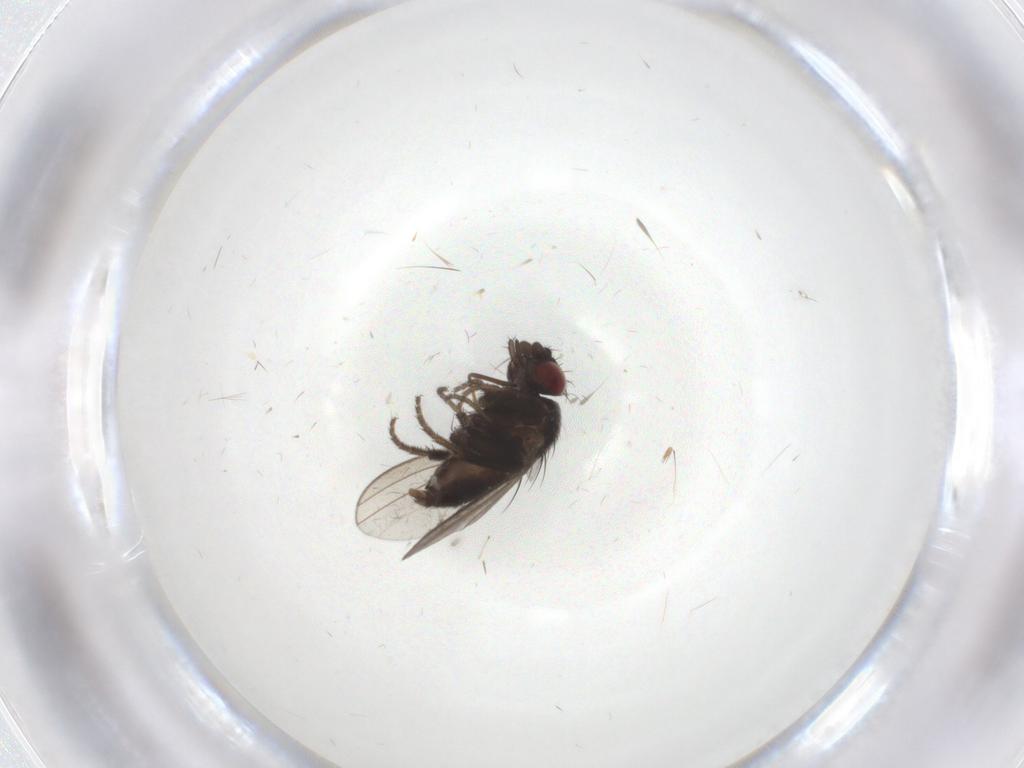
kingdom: Animalia
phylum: Arthropoda
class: Insecta
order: Diptera
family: Milichiidae
